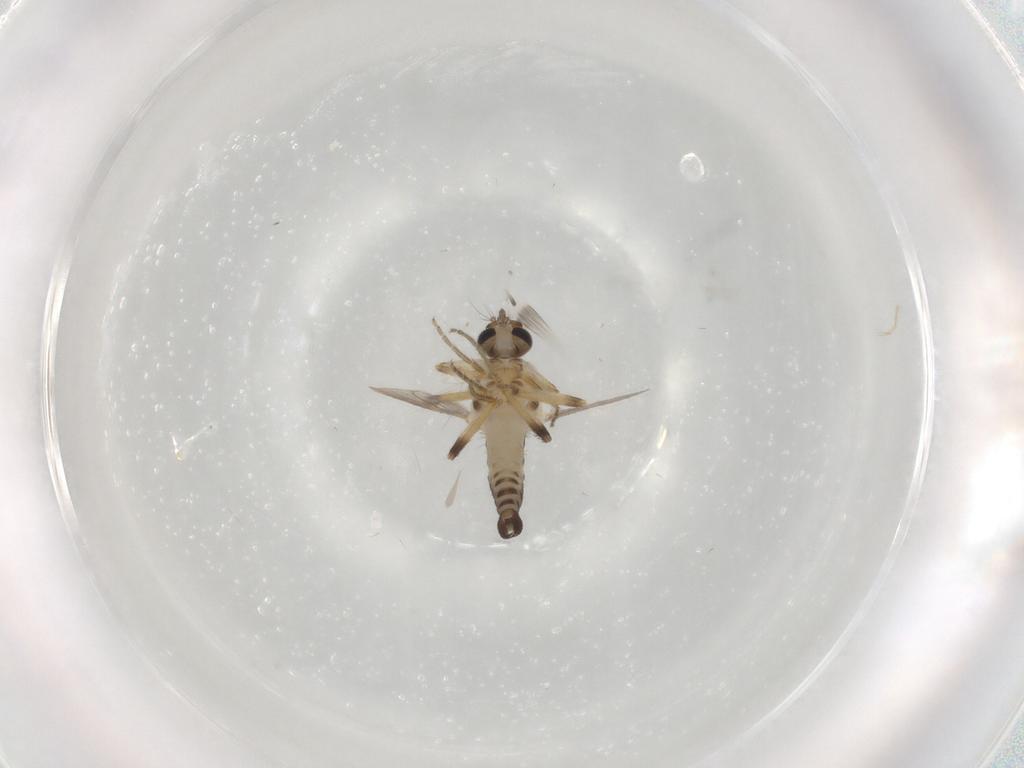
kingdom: Animalia
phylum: Arthropoda
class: Insecta
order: Diptera
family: Ceratopogonidae
